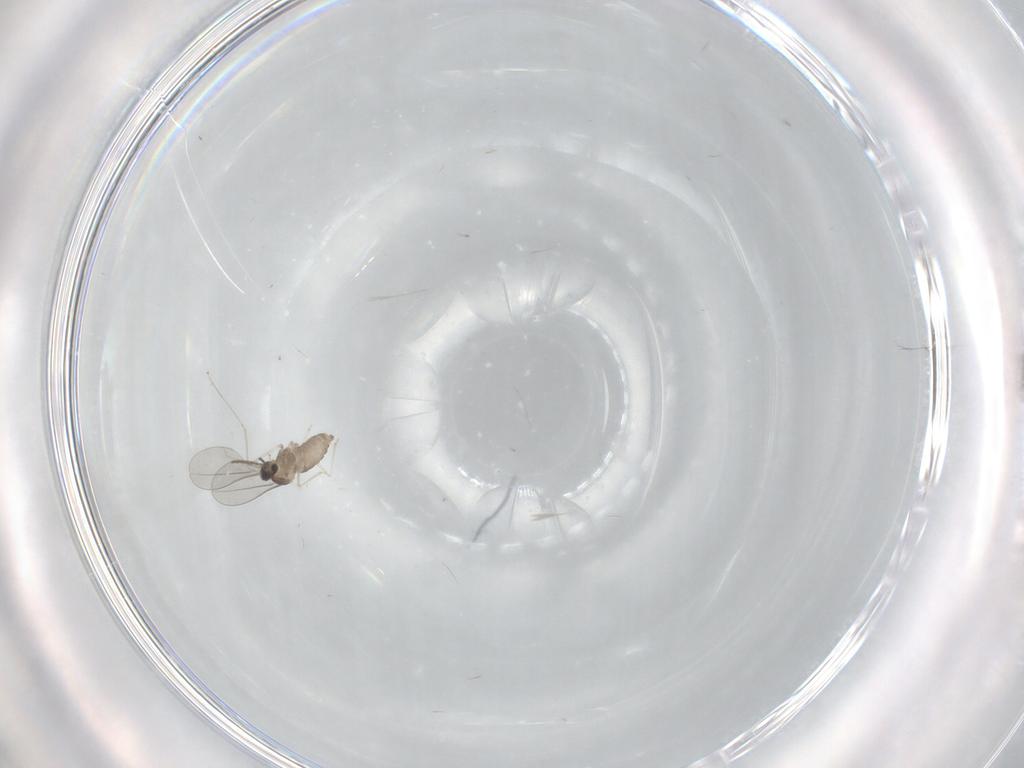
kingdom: Animalia
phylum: Arthropoda
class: Insecta
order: Diptera
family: Cecidomyiidae
